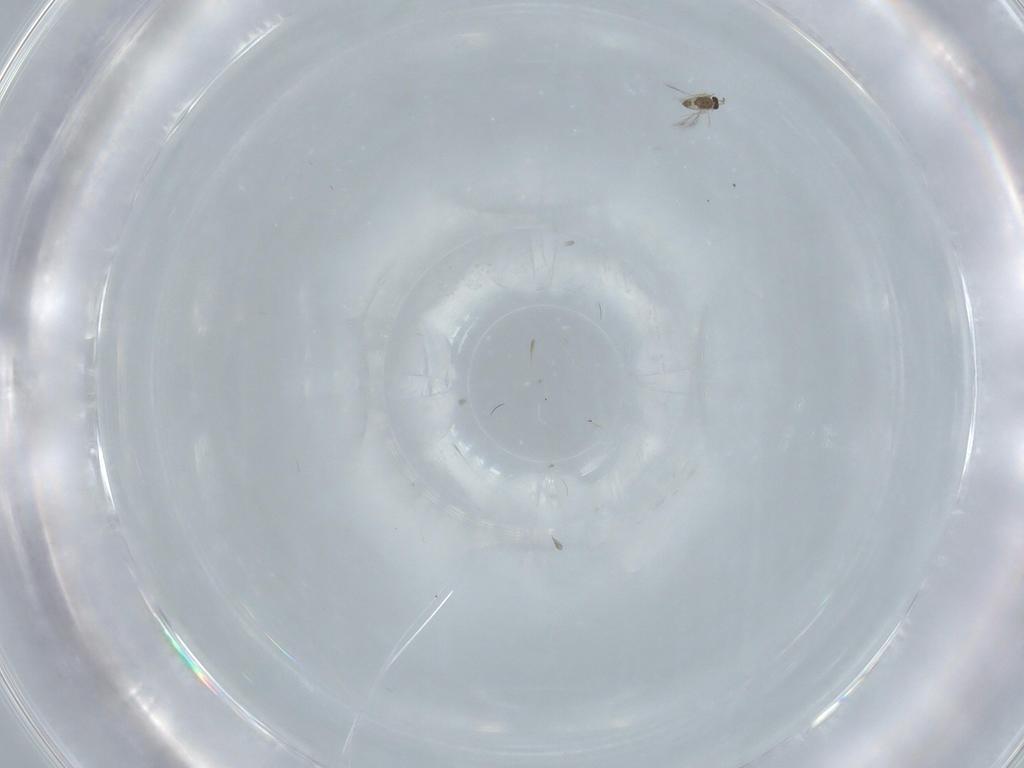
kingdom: Animalia
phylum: Arthropoda
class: Insecta
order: Hymenoptera
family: Mymaridae
